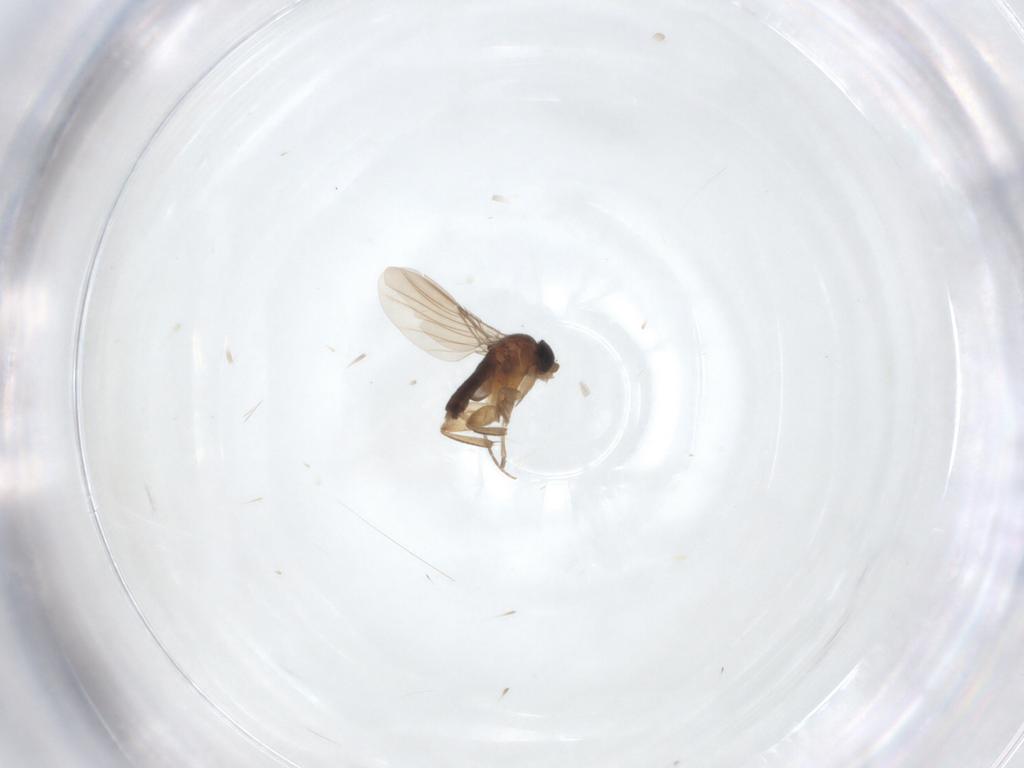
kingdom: Animalia
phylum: Arthropoda
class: Insecta
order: Diptera
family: Phoridae
